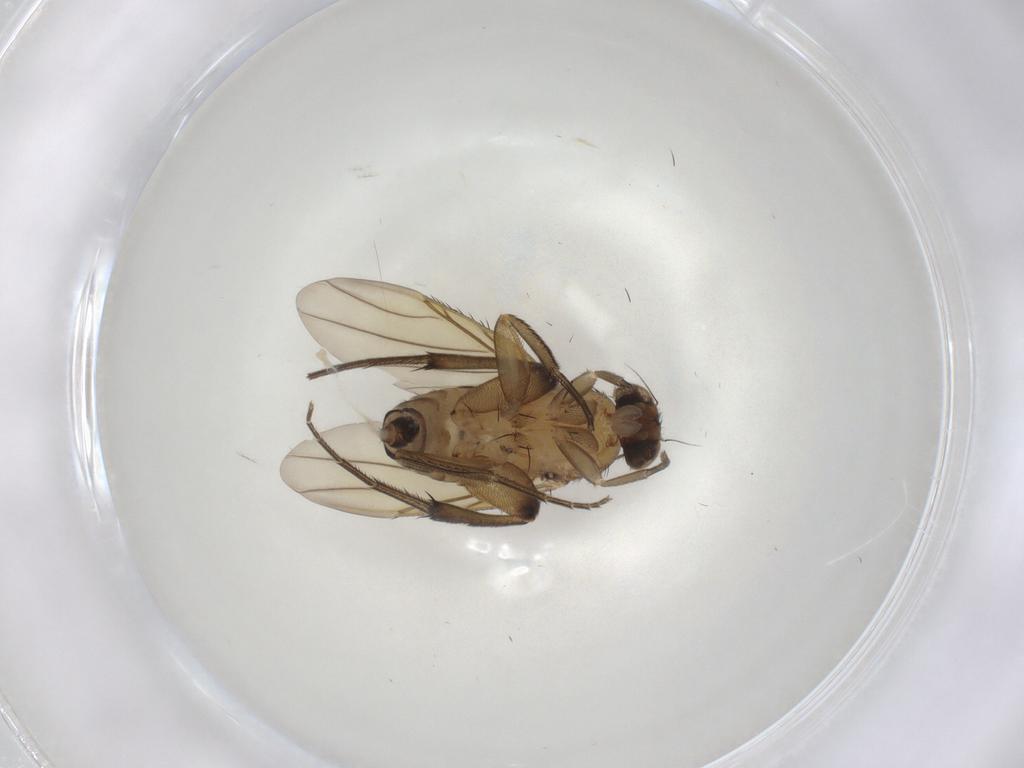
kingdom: Animalia
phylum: Arthropoda
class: Insecta
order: Diptera
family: Phoridae
